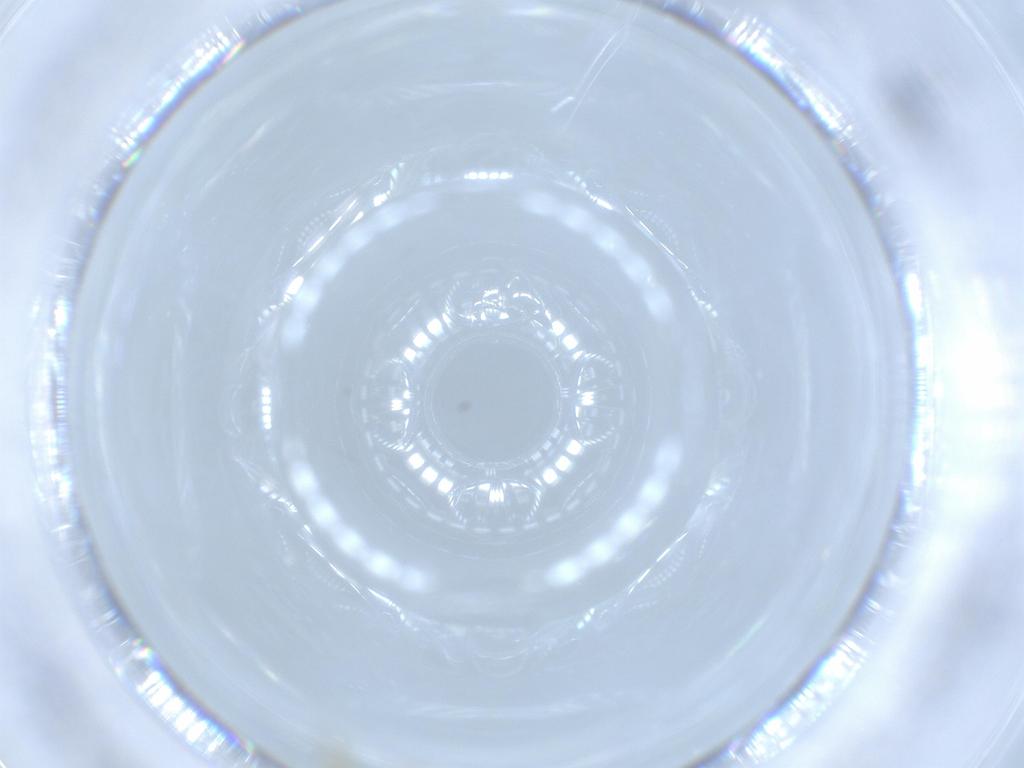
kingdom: Animalia
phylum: Arthropoda
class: Insecta
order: Diptera
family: Chironomidae
